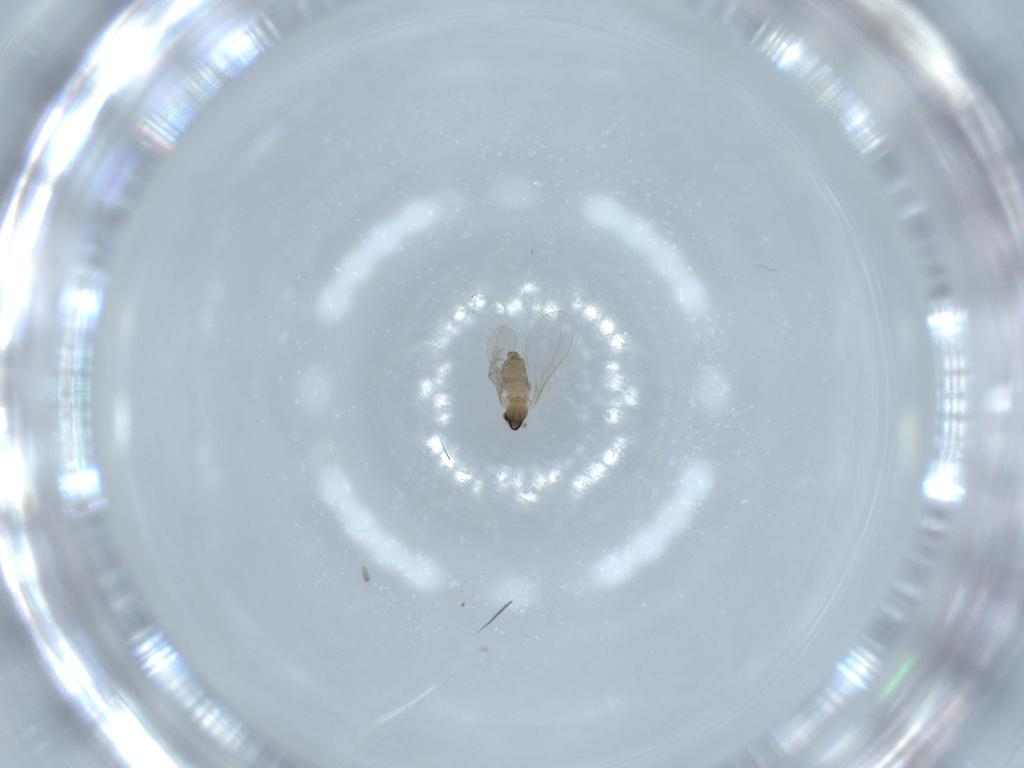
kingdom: Animalia
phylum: Arthropoda
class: Insecta
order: Diptera
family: Cecidomyiidae
